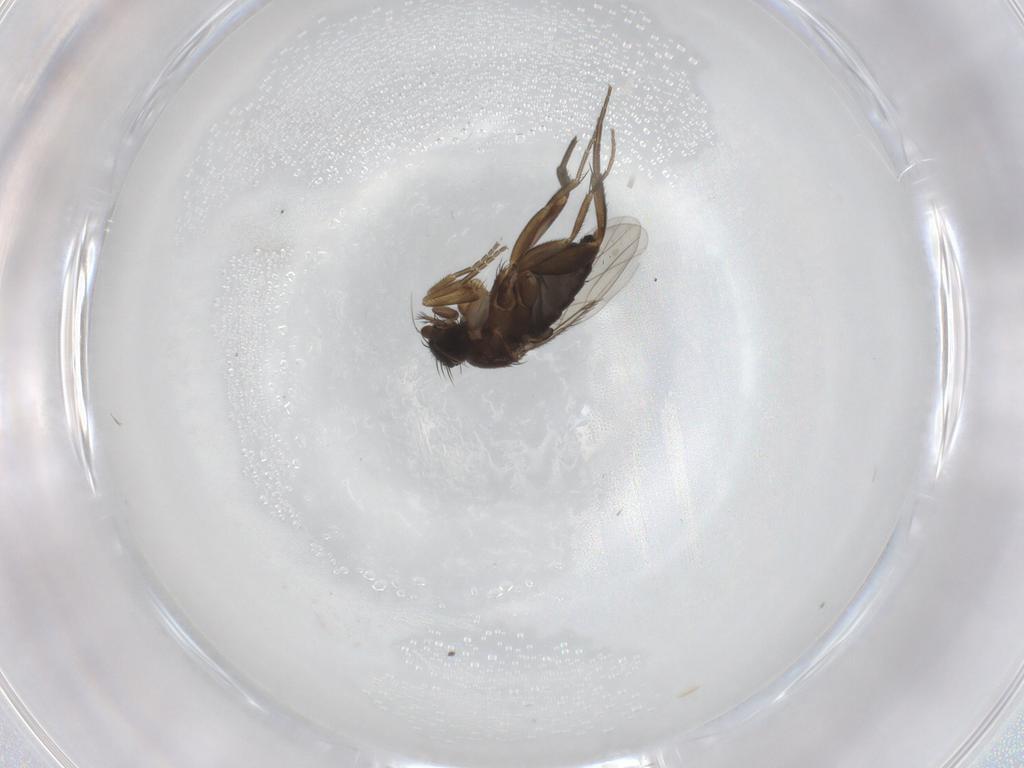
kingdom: Animalia
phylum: Arthropoda
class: Insecta
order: Diptera
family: Phoridae
